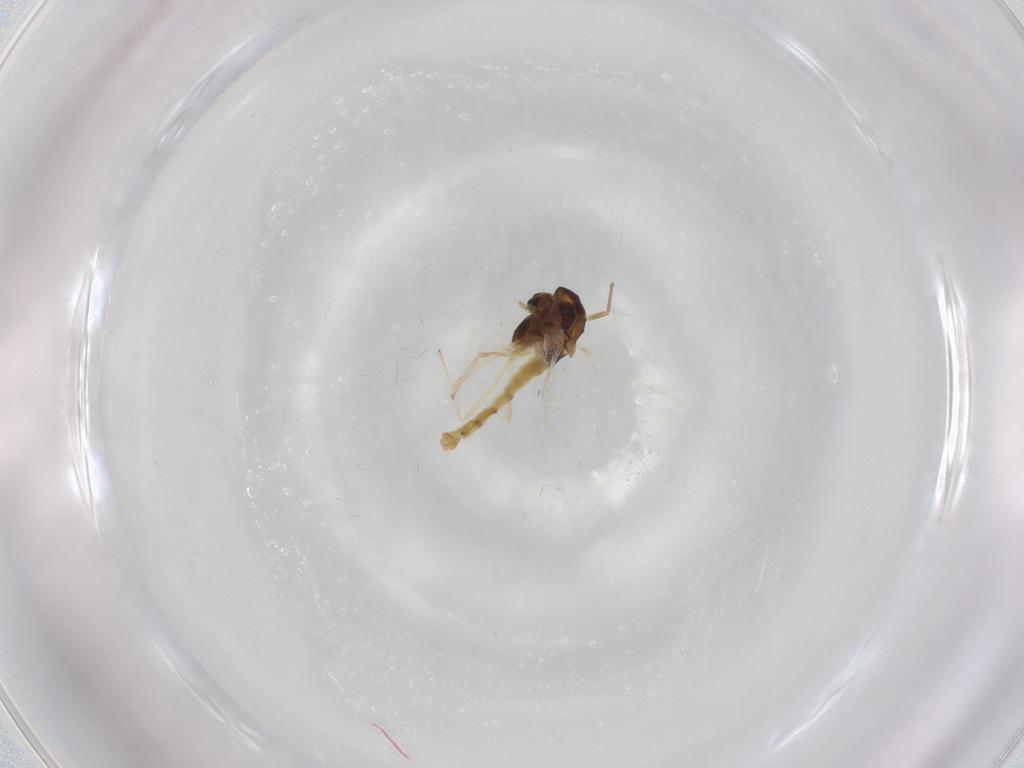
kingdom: Animalia
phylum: Arthropoda
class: Insecta
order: Diptera
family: Chironomidae
